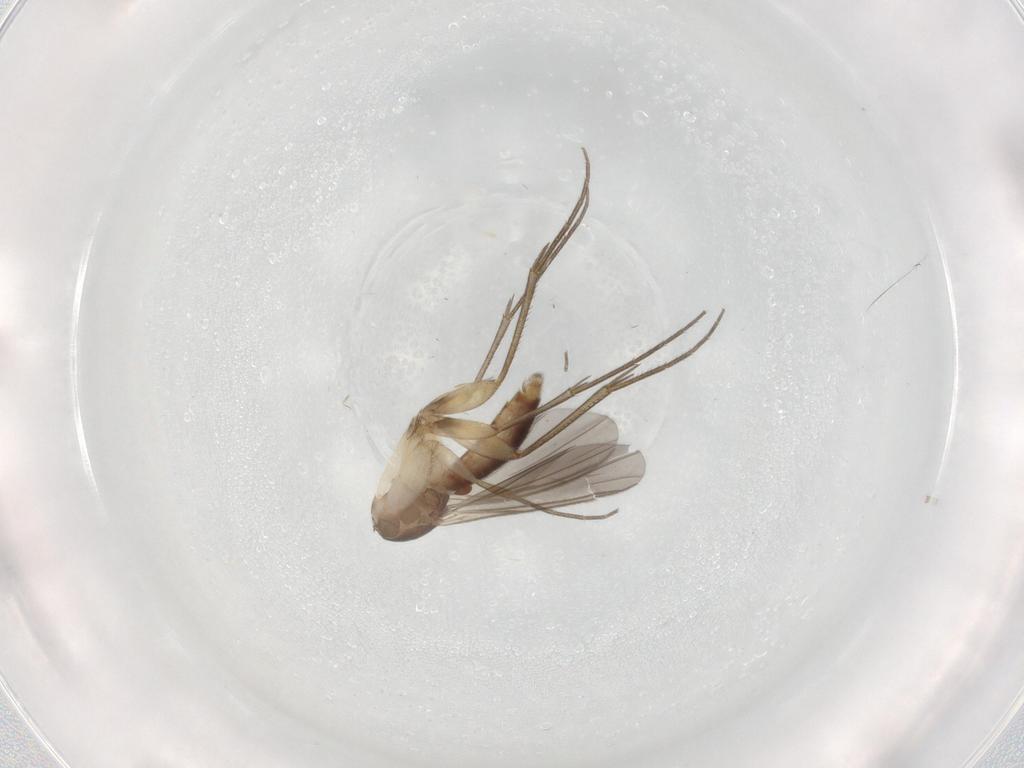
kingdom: Animalia
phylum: Arthropoda
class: Insecta
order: Diptera
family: Mycetophilidae
